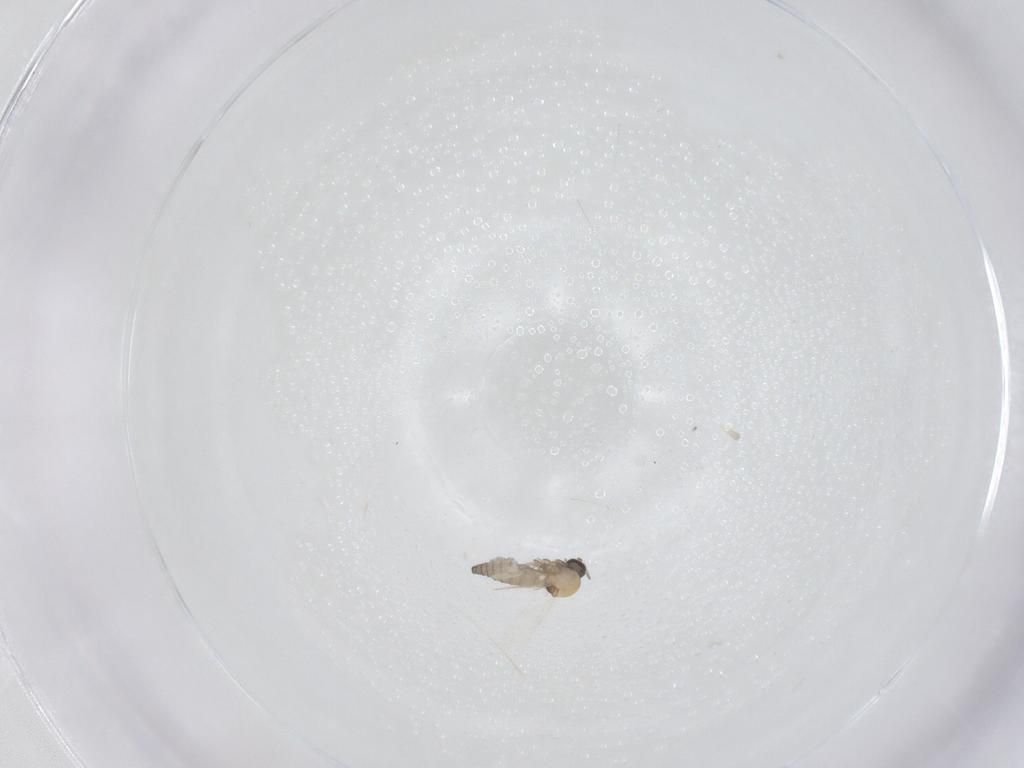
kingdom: Animalia
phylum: Arthropoda
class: Insecta
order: Diptera
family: Ceratopogonidae
